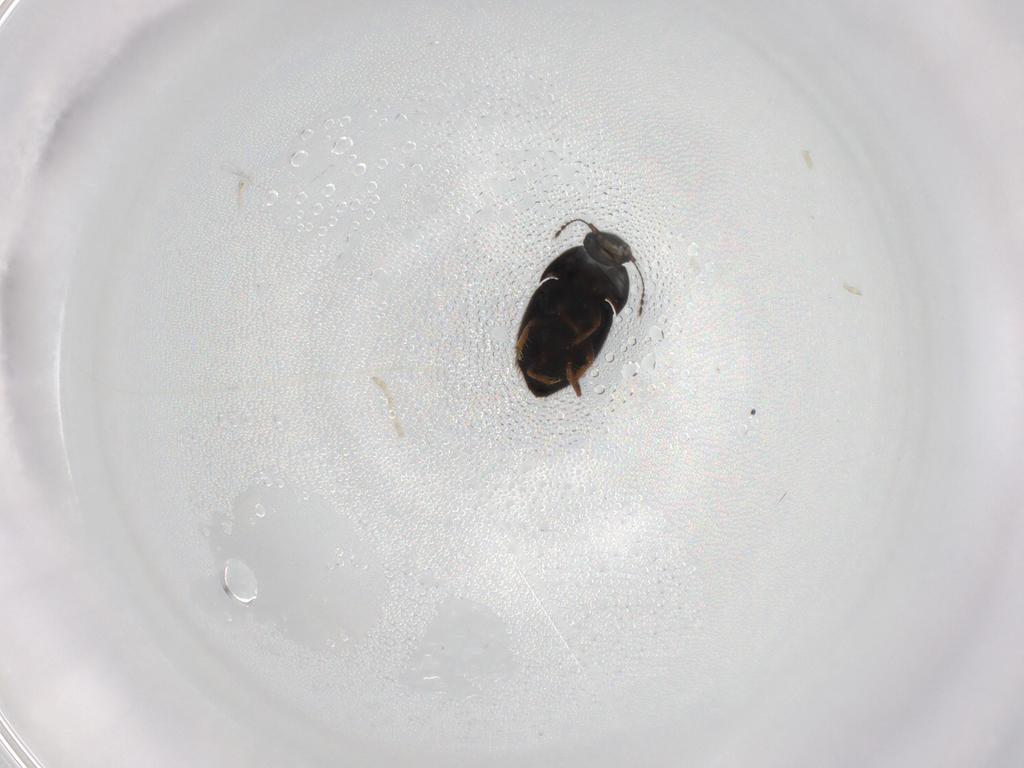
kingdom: Animalia
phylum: Arthropoda
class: Insecta
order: Coleoptera
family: Ptiliidae
